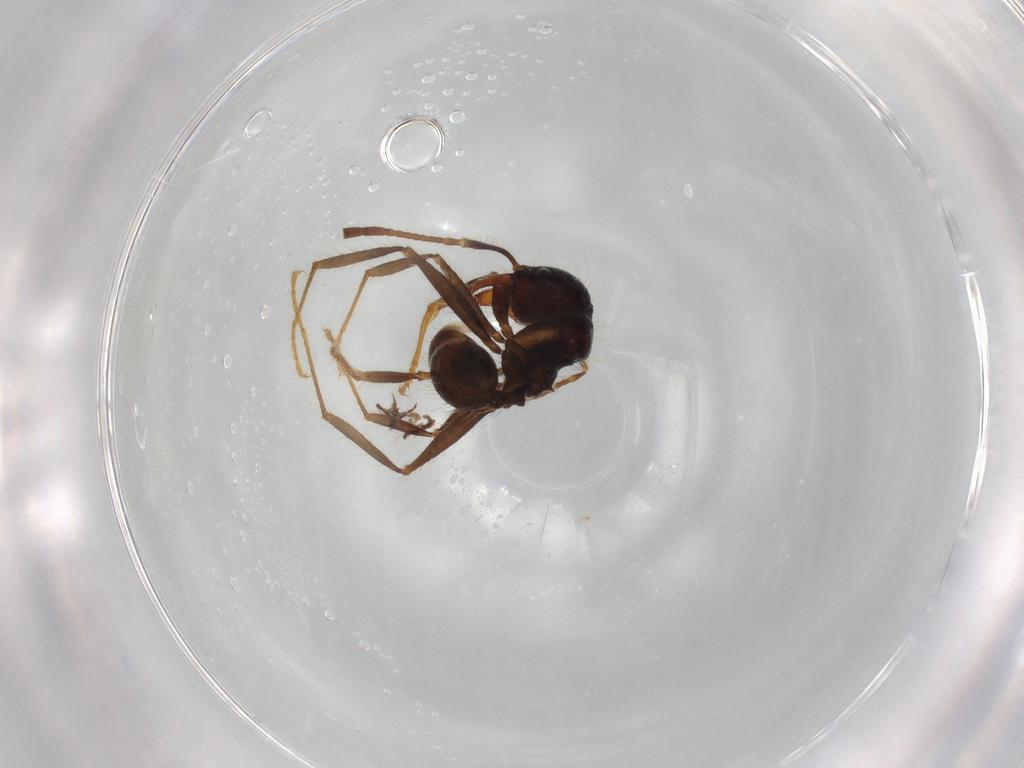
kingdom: Animalia
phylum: Arthropoda
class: Insecta
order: Hymenoptera
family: Formicidae
